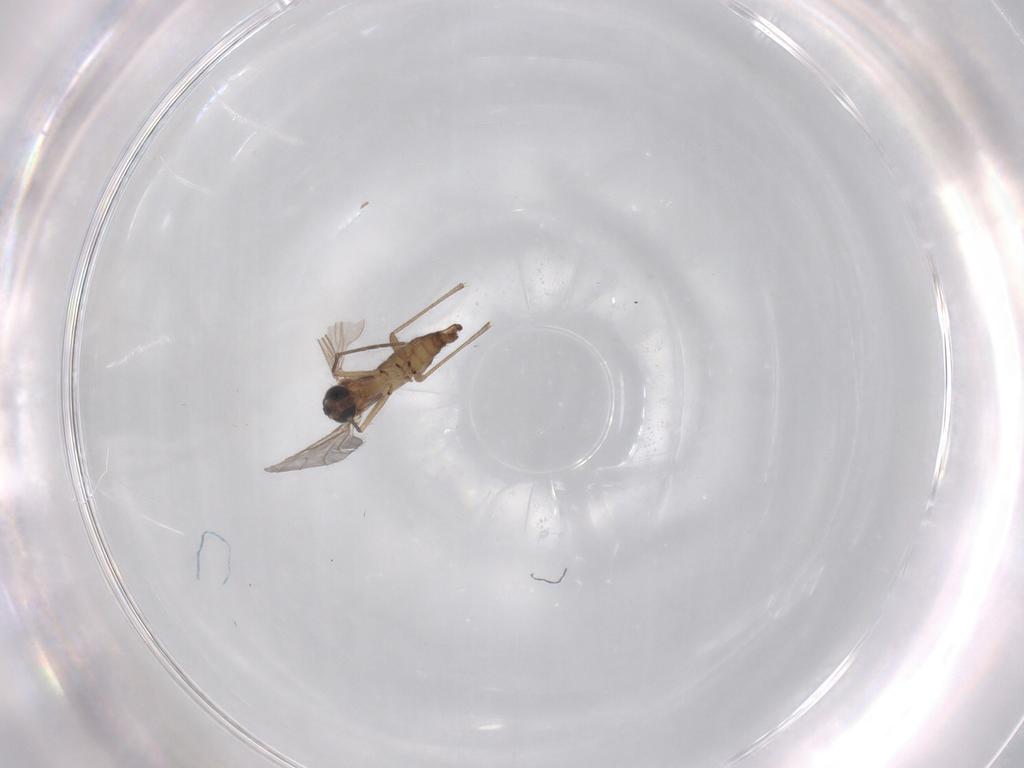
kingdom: Animalia
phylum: Arthropoda
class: Insecta
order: Diptera
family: Sciaridae
